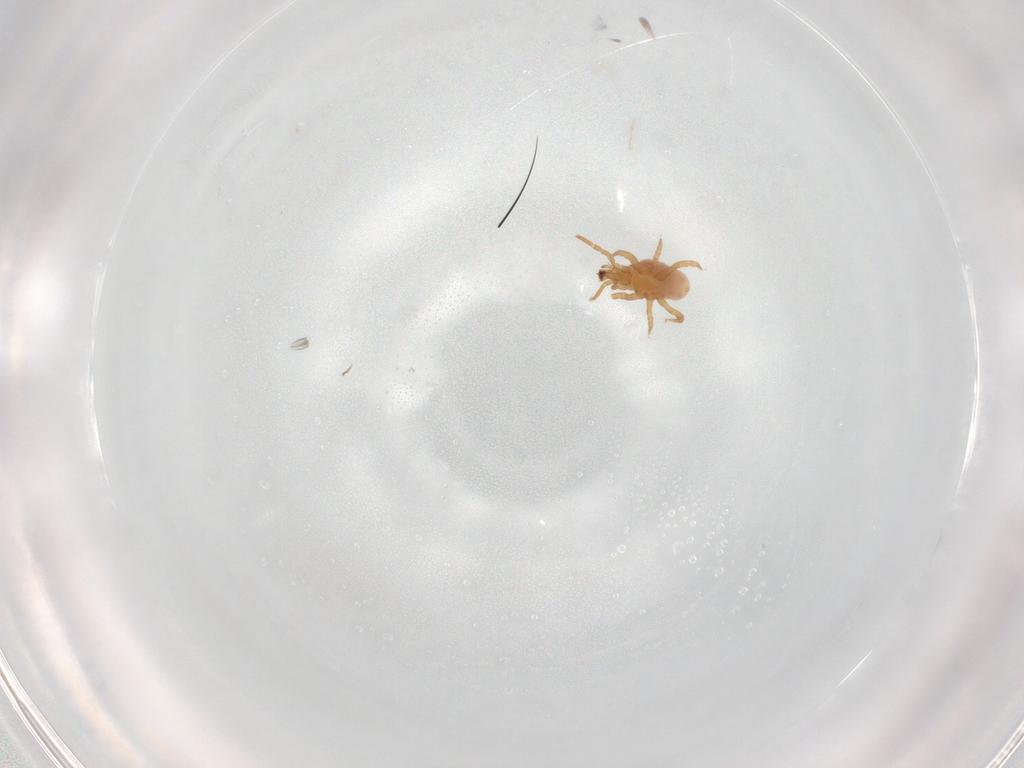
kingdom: Animalia
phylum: Arthropoda
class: Arachnida
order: Mesostigmata
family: Parasitidae
